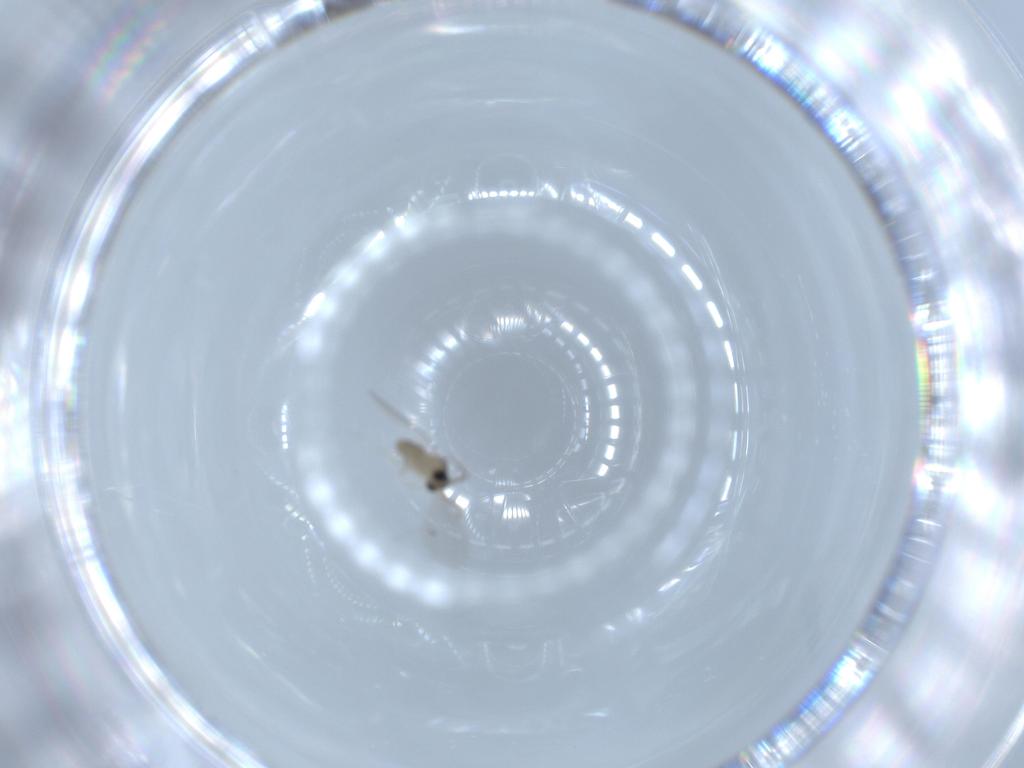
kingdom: Animalia
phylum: Arthropoda
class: Insecta
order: Diptera
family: Cecidomyiidae
